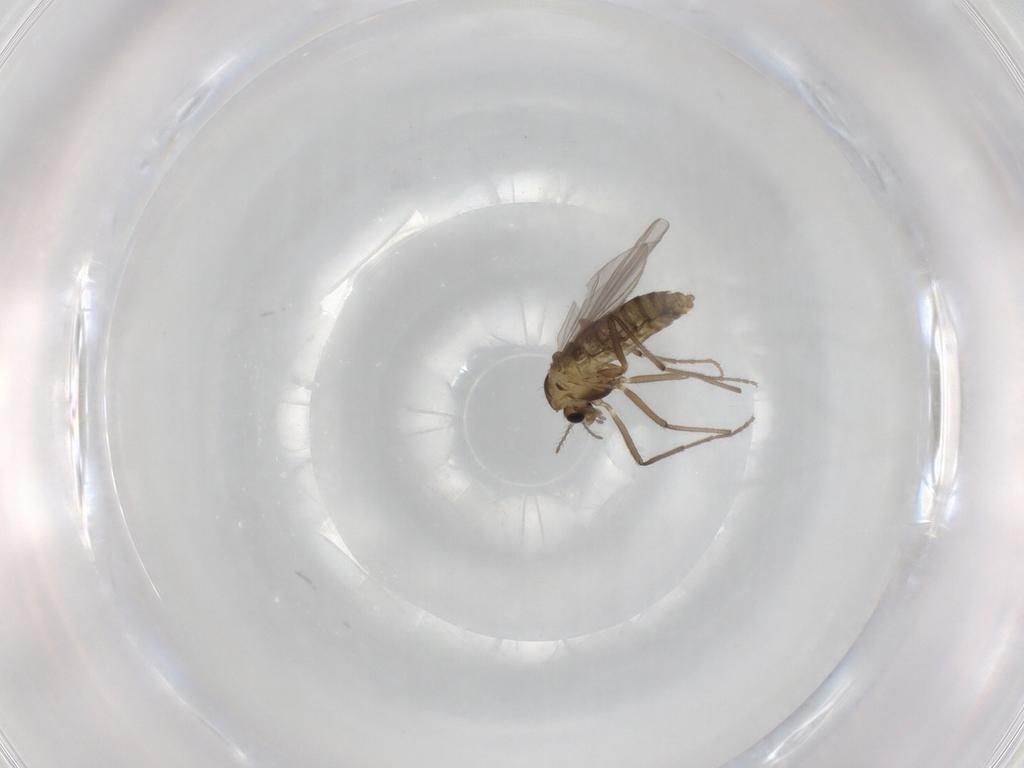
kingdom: Animalia
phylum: Arthropoda
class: Insecta
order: Diptera
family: Chironomidae
